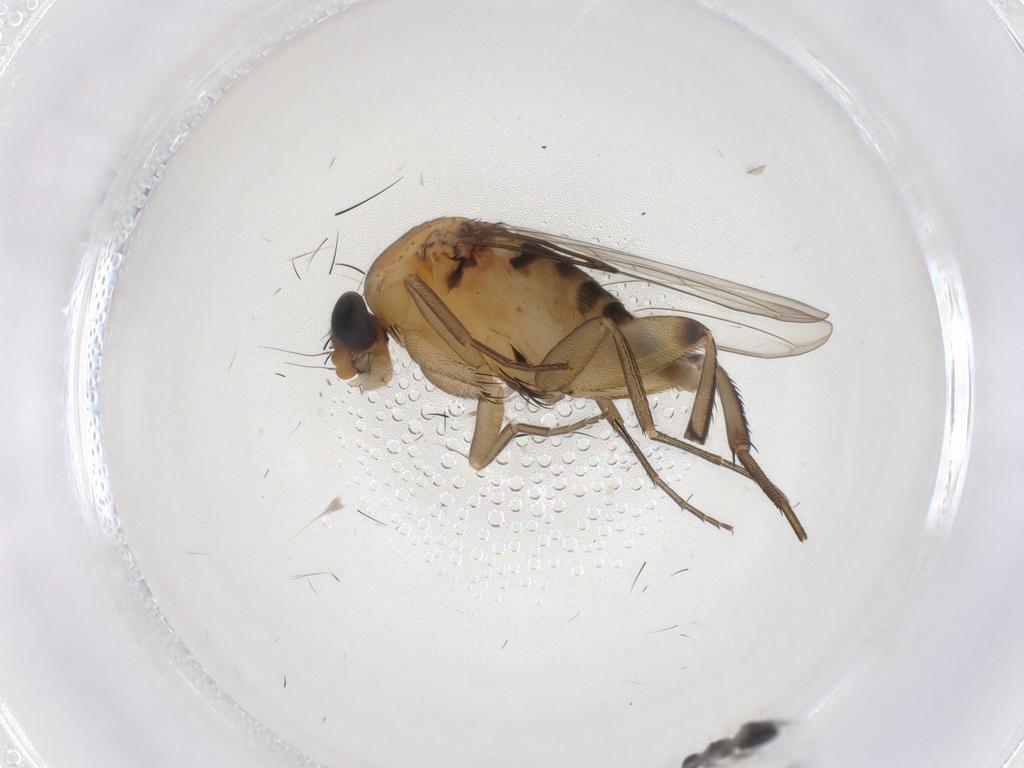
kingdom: Animalia
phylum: Arthropoda
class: Insecta
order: Diptera
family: Phoridae
